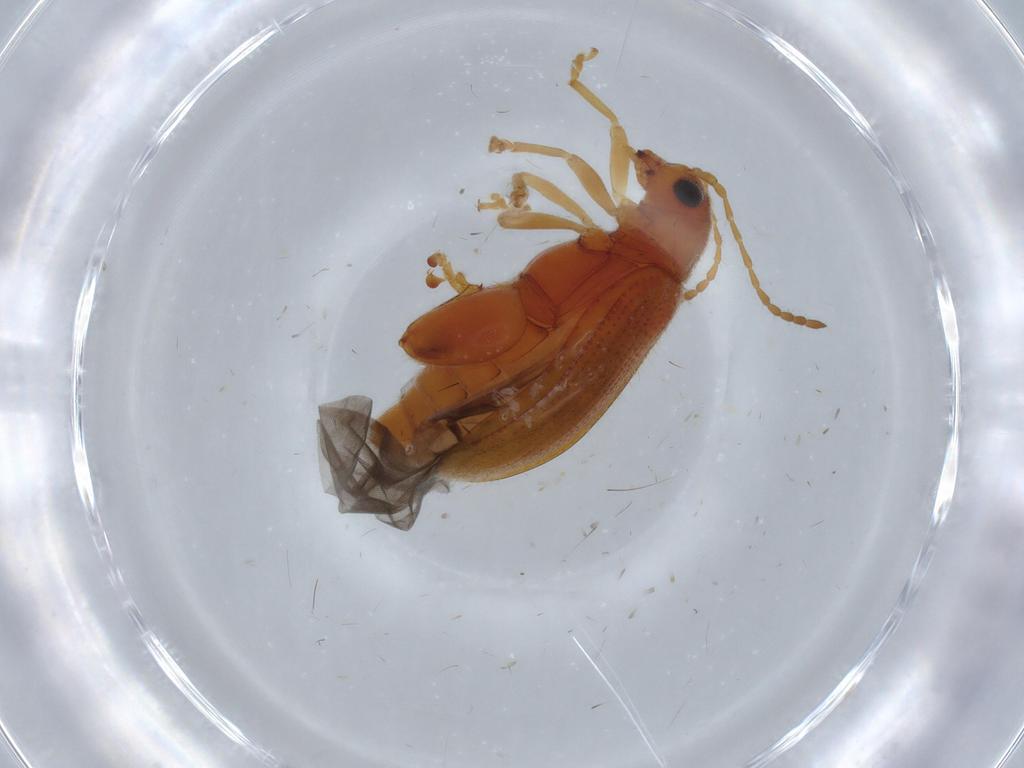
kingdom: Animalia
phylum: Arthropoda
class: Insecta
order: Coleoptera
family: Chrysomelidae
